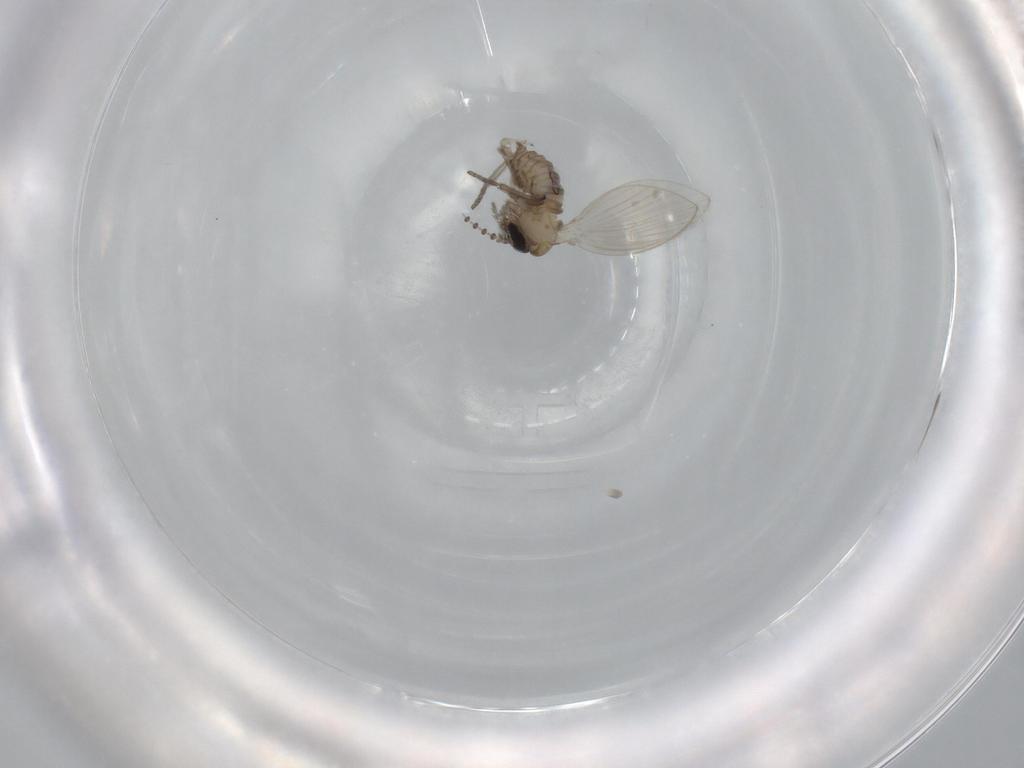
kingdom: Animalia
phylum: Arthropoda
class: Insecta
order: Diptera
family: Psychodidae
